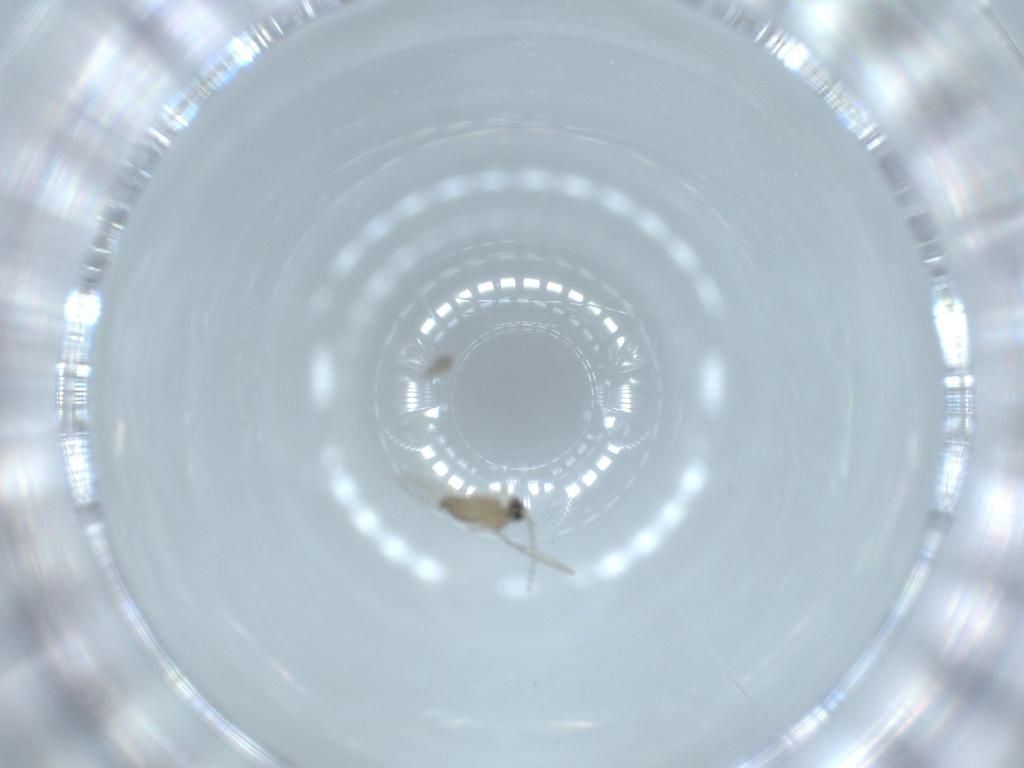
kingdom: Animalia
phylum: Arthropoda
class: Insecta
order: Diptera
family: Cecidomyiidae
